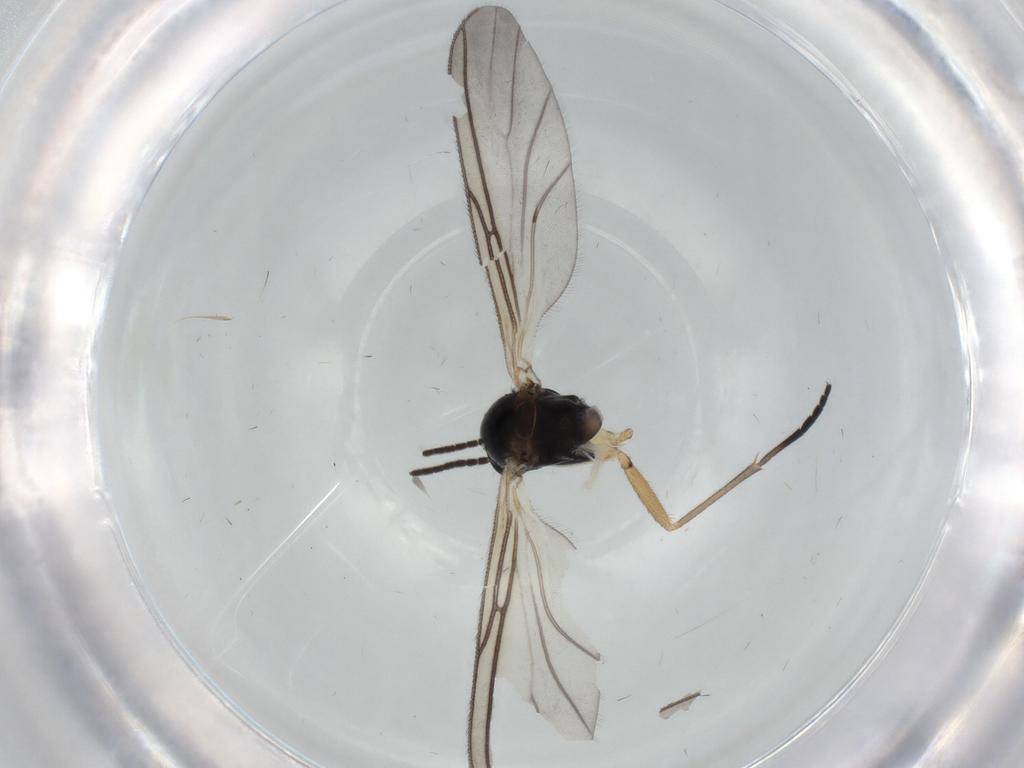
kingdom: Animalia
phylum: Arthropoda
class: Insecta
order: Diptera
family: Sciaridae
